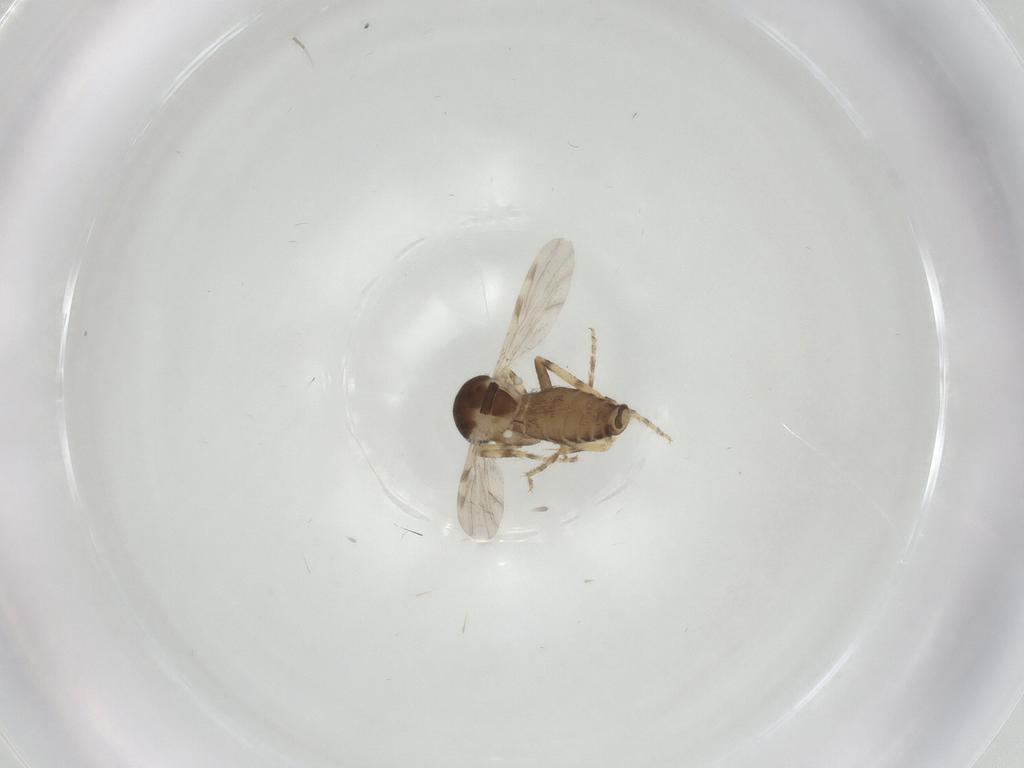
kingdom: Animalia
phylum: Arthropoda
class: Insecta
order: Diptera
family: Ceratopogonidae
